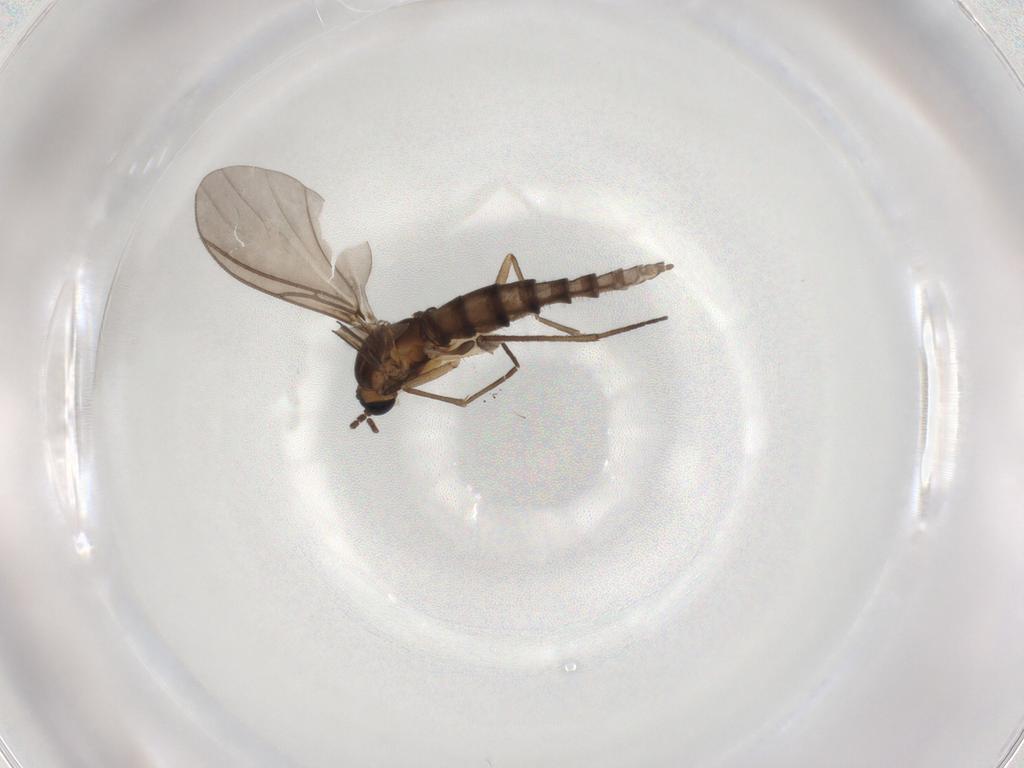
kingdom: Animalia
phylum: Arthropoda
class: Insecta
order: Diptera
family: Sciaridae
